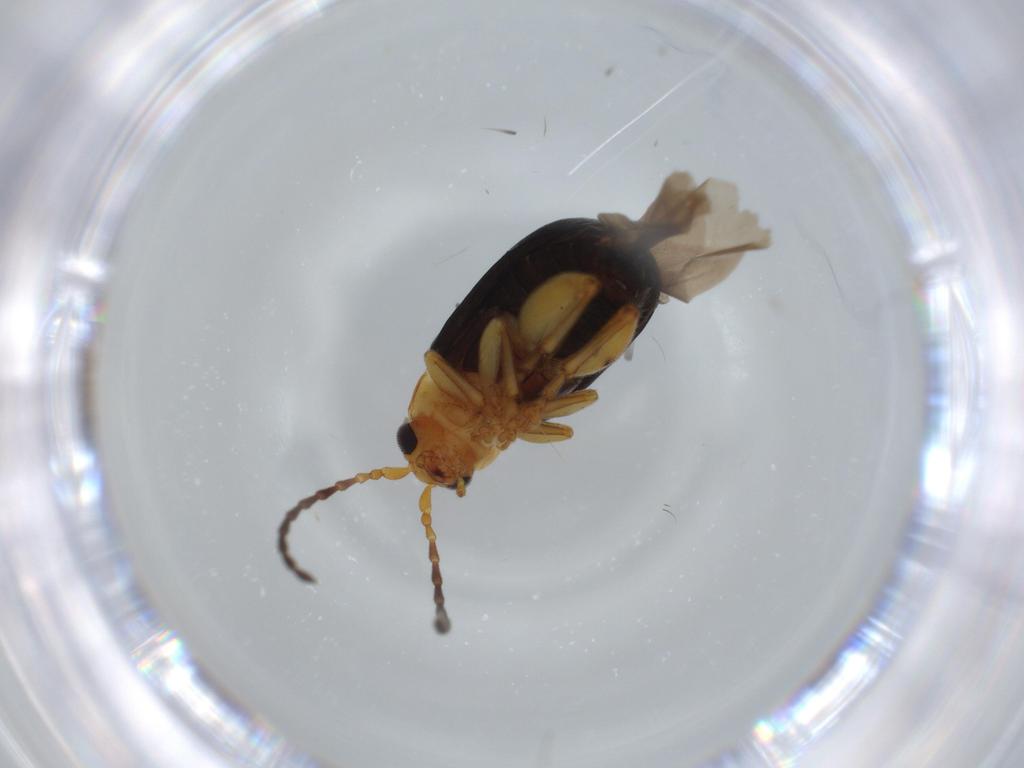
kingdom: Animalia
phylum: Arthropoda
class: Insecta
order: Coleoptera
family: Chrysomelidae
